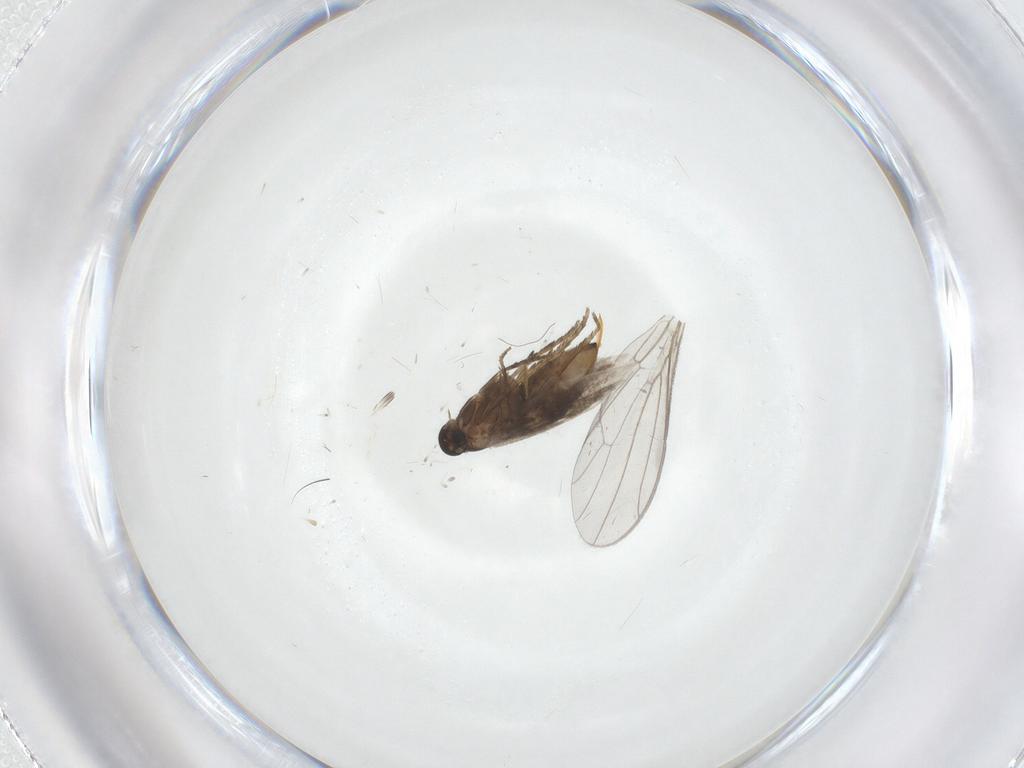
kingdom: Animalia
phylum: Arthropoda
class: Insecta
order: Diptera
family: Empididae
